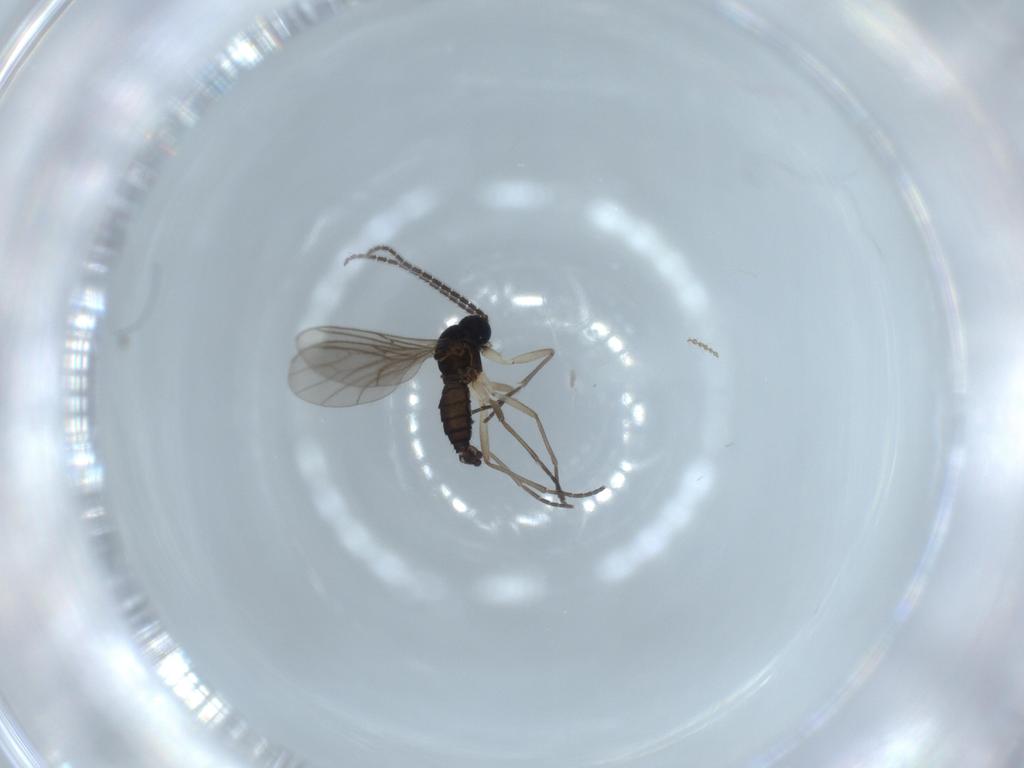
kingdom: Animalia
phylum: Arthropoda
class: Insecta
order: Diptera
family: Sciaridae
